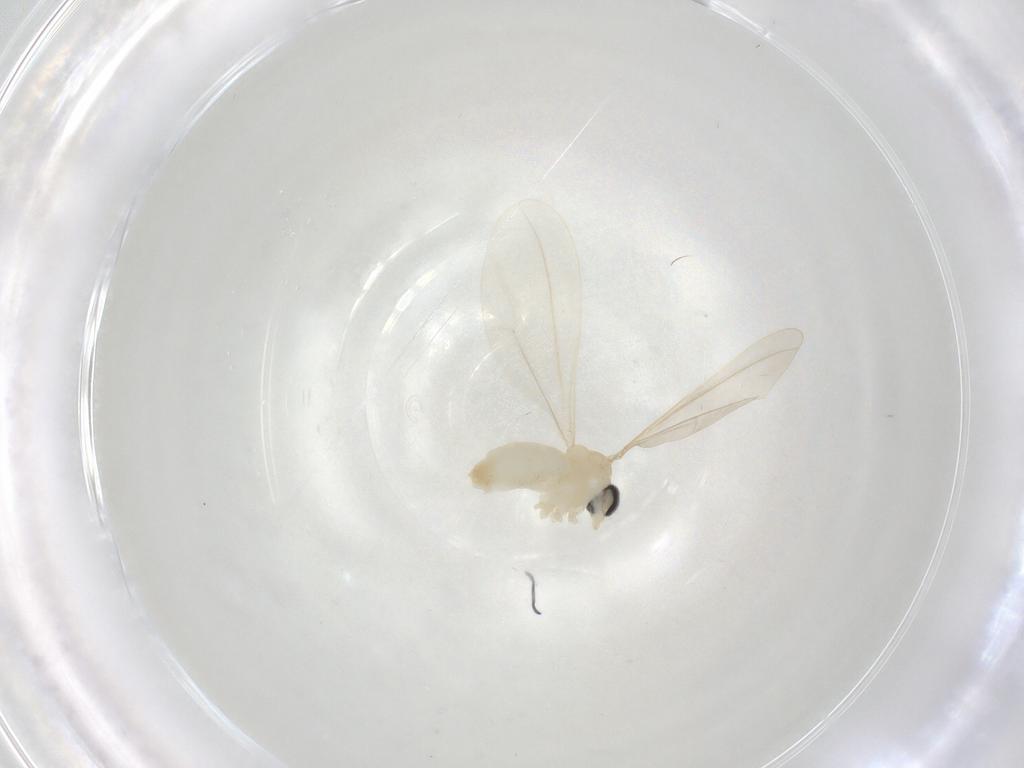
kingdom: Animalia
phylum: Arthropoda
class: Insecta
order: Diptera
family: Cecidomyiidae
